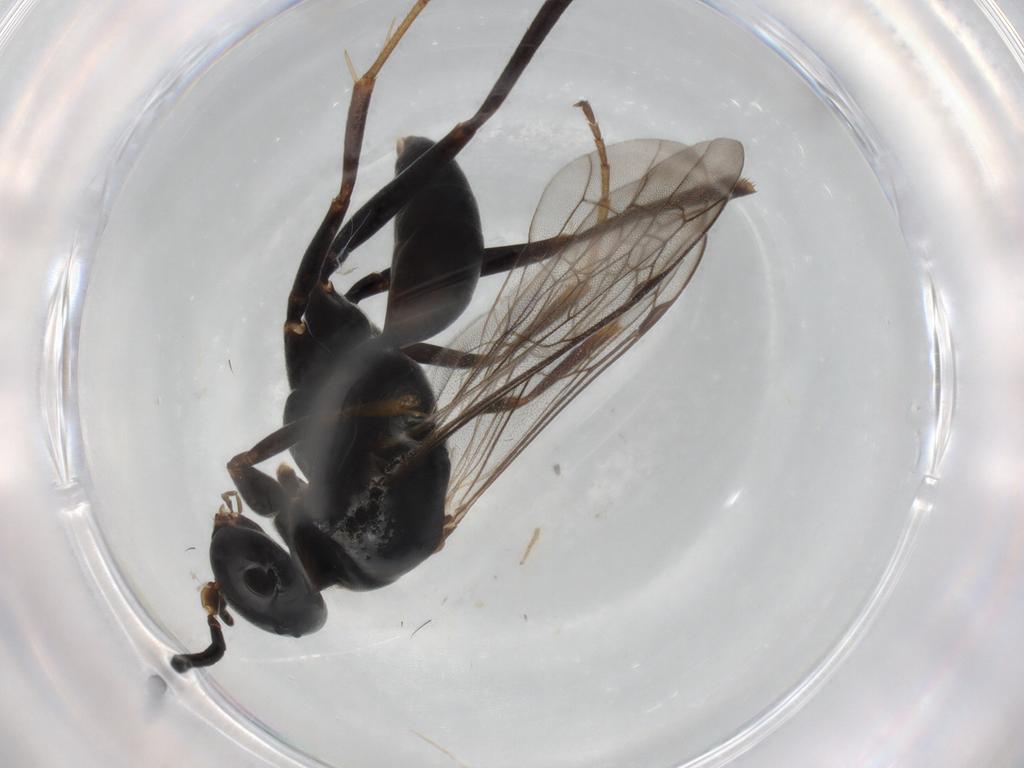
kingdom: Animalia
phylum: Arthropoda
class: Insecta
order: Hymenoptera
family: Pompilidae
